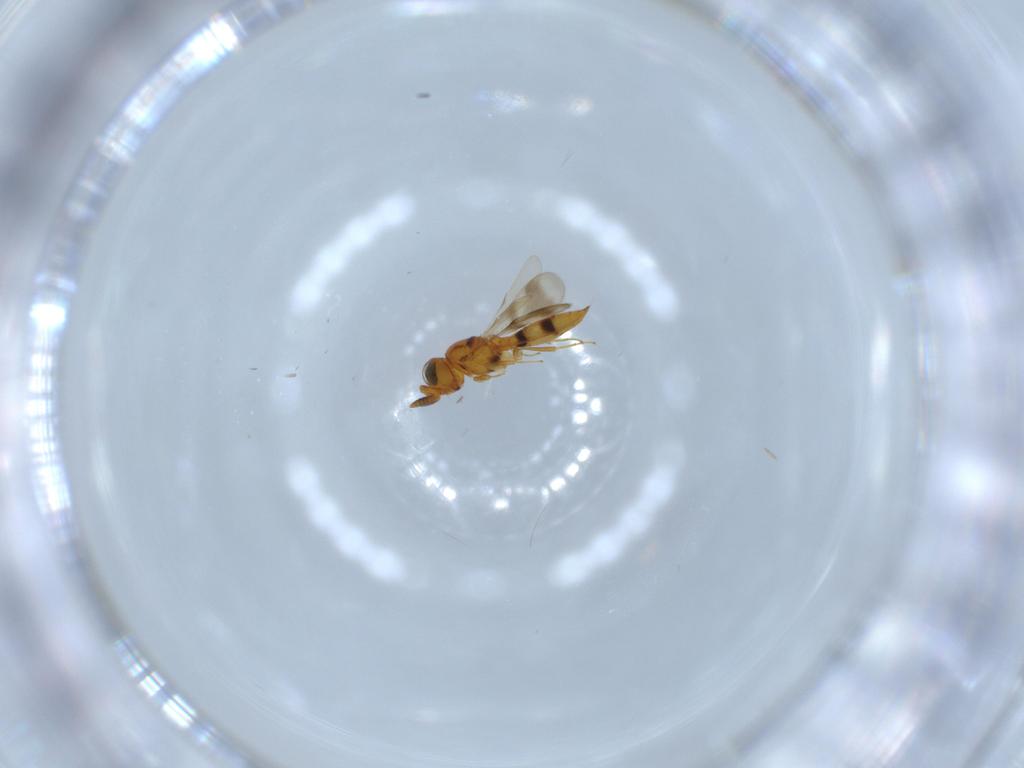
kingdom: Animalia
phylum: Arthropoda
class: Insecta
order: Hymenoptera
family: Scelionidae
